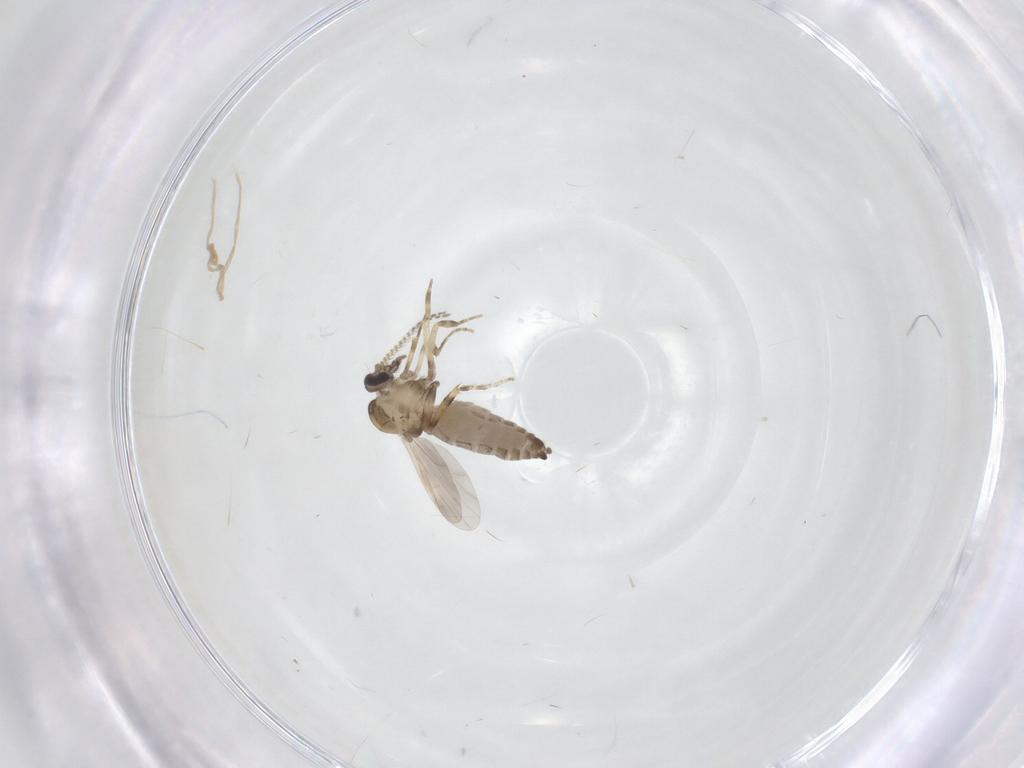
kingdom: Animalia
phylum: Arthropoda
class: Insecta
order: Diptera
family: Ceratopogonidae
